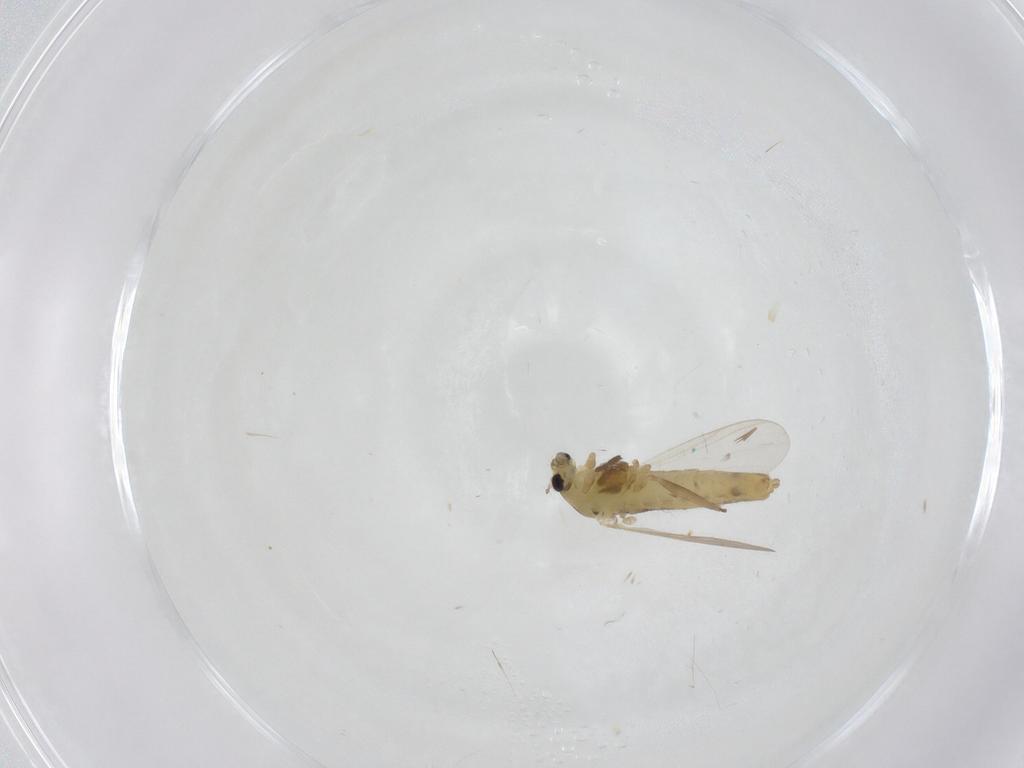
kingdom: Animalia
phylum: Arthropoda
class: Insecta
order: Diptera
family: Phoridae
